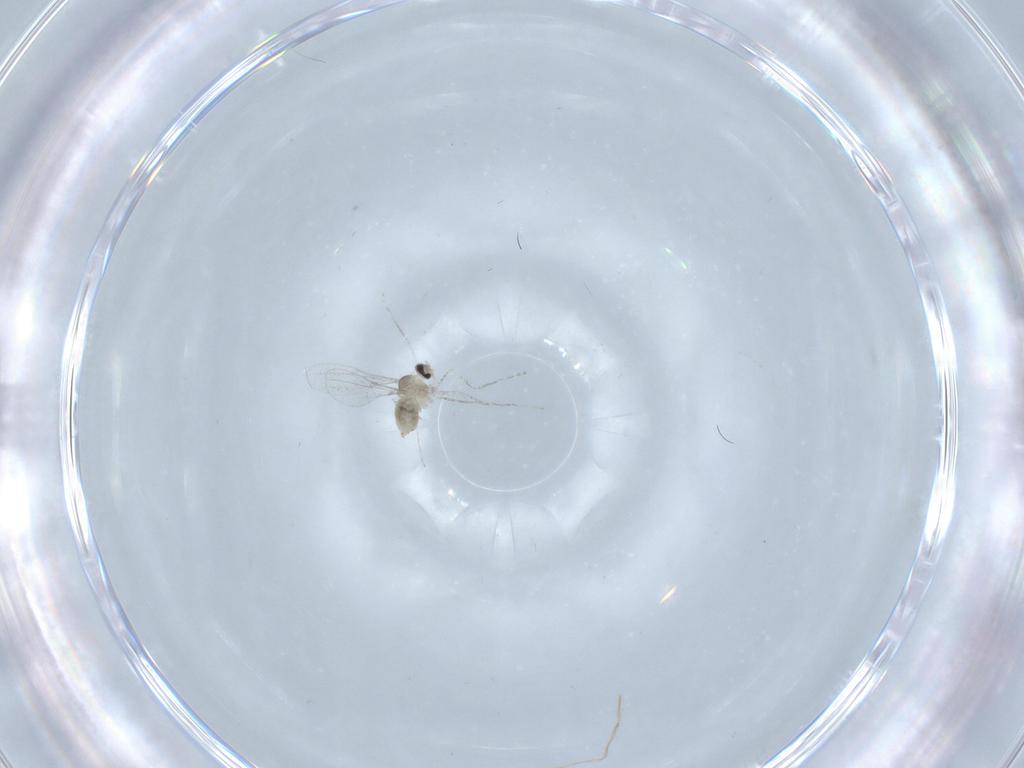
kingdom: Animalia
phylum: Arthropoda
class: Insecta
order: Diptera
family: Cecidomyiidae
